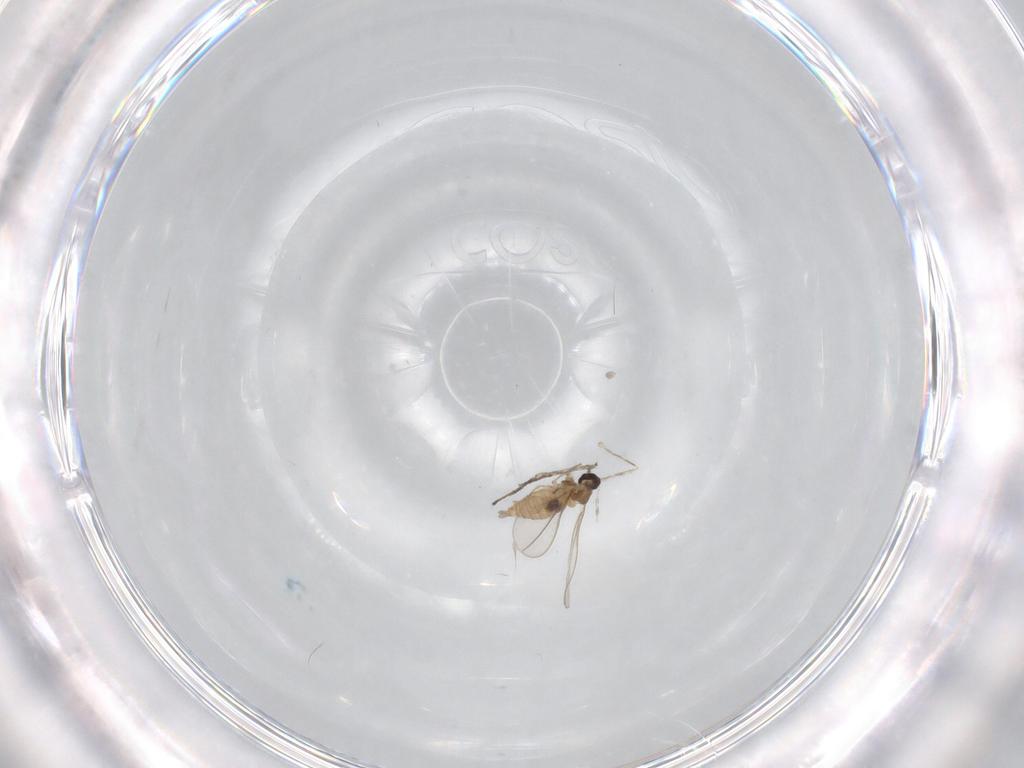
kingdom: Animalia
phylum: Arthropoda
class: Insecta
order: Diptera
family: Cecidomyiidae
